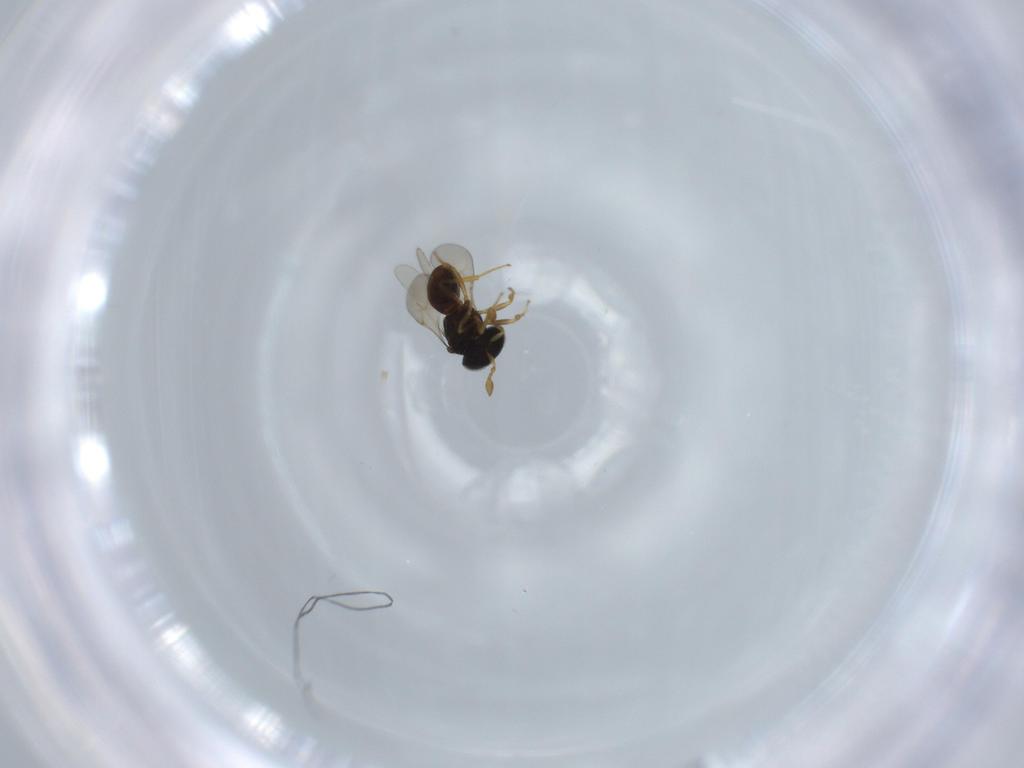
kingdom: Animalia
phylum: Arthropoda
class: Insecta
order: Hymenoptera
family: Scelionidae
